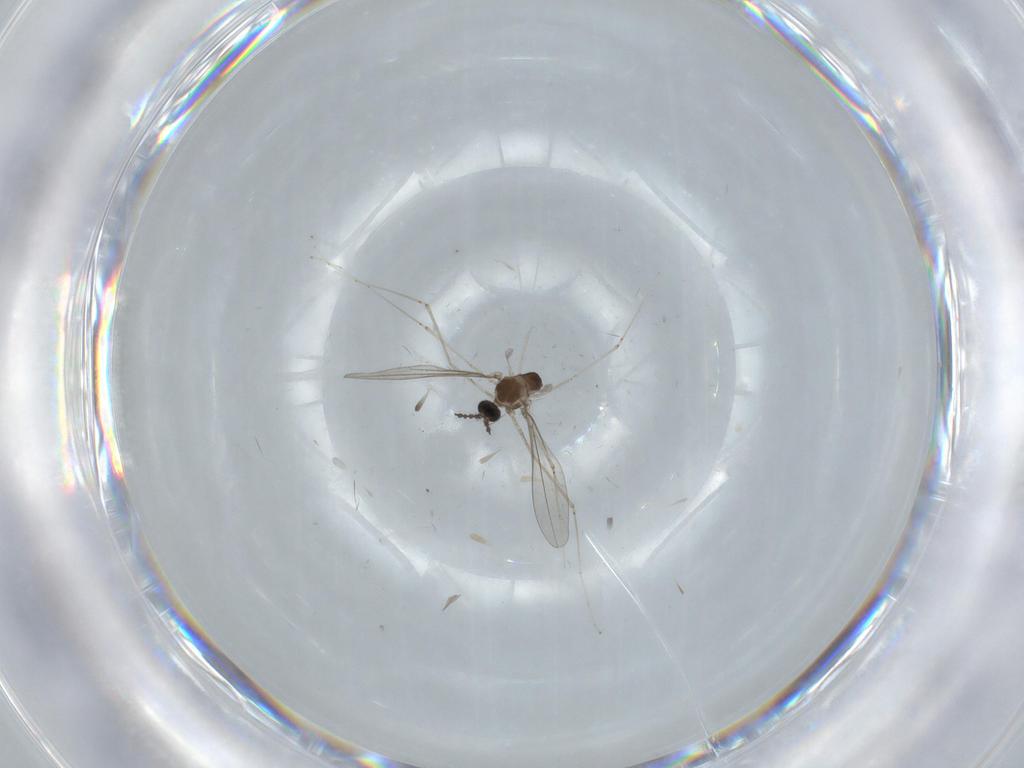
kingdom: Animalia
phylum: Arthropoda
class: Insecta
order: Diptera
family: Milichiidae
